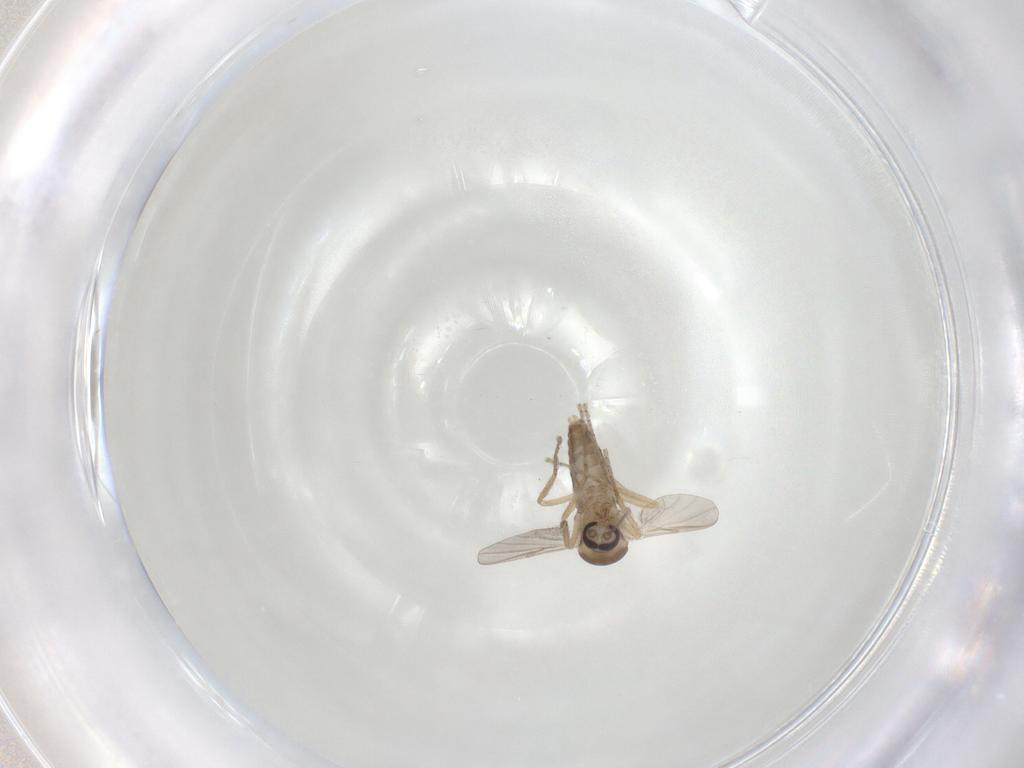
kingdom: Animalia
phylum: Arthropoda
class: Insecta
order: Diptera
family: Ceratopogonidae
